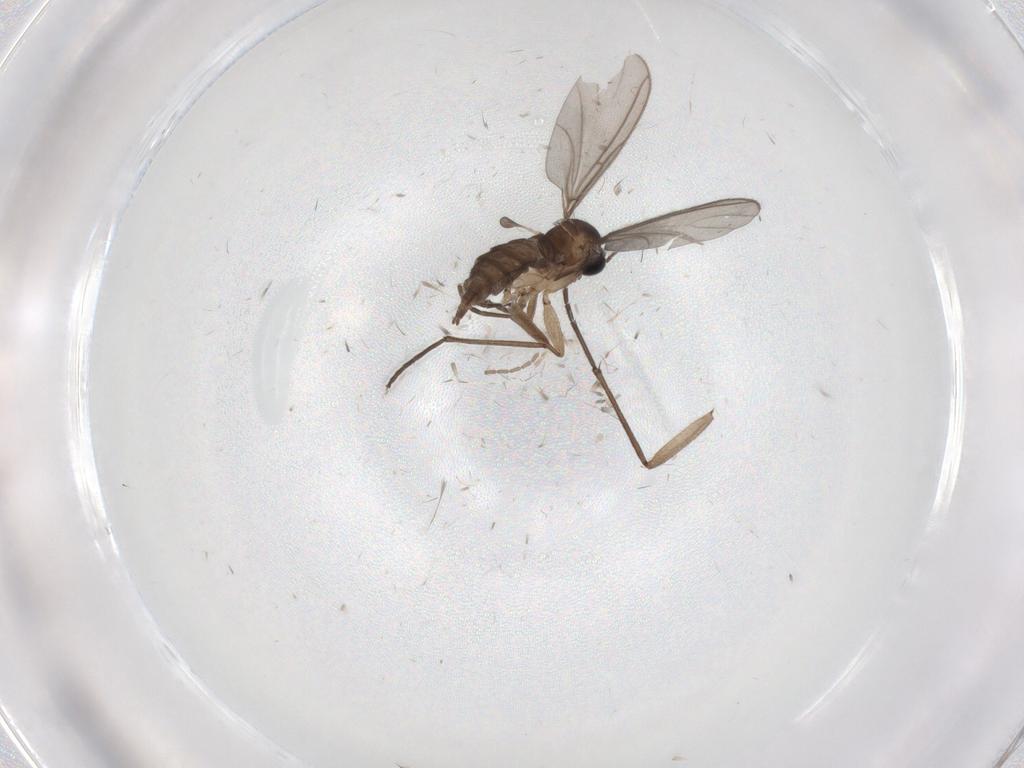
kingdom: Animalia
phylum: Arthropoda
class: Insecta
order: Diptera
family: Sciaridae
